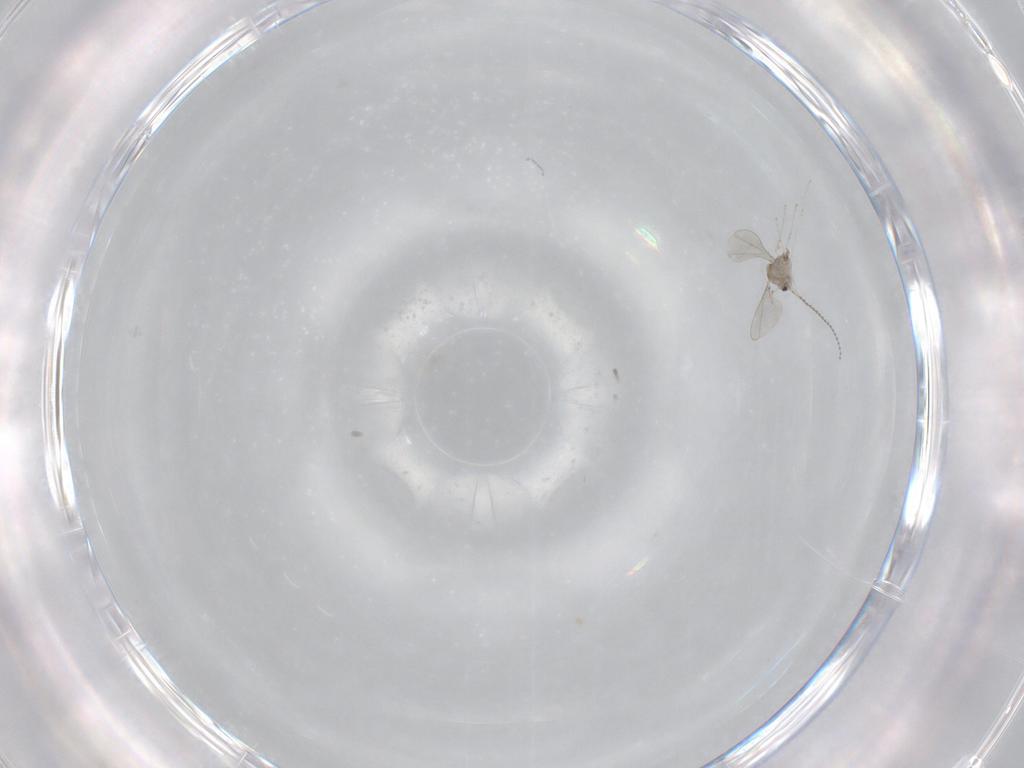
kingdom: Animalia
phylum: Arthropoda
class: Insecta
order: Diptera
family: Cecidomyiidae
